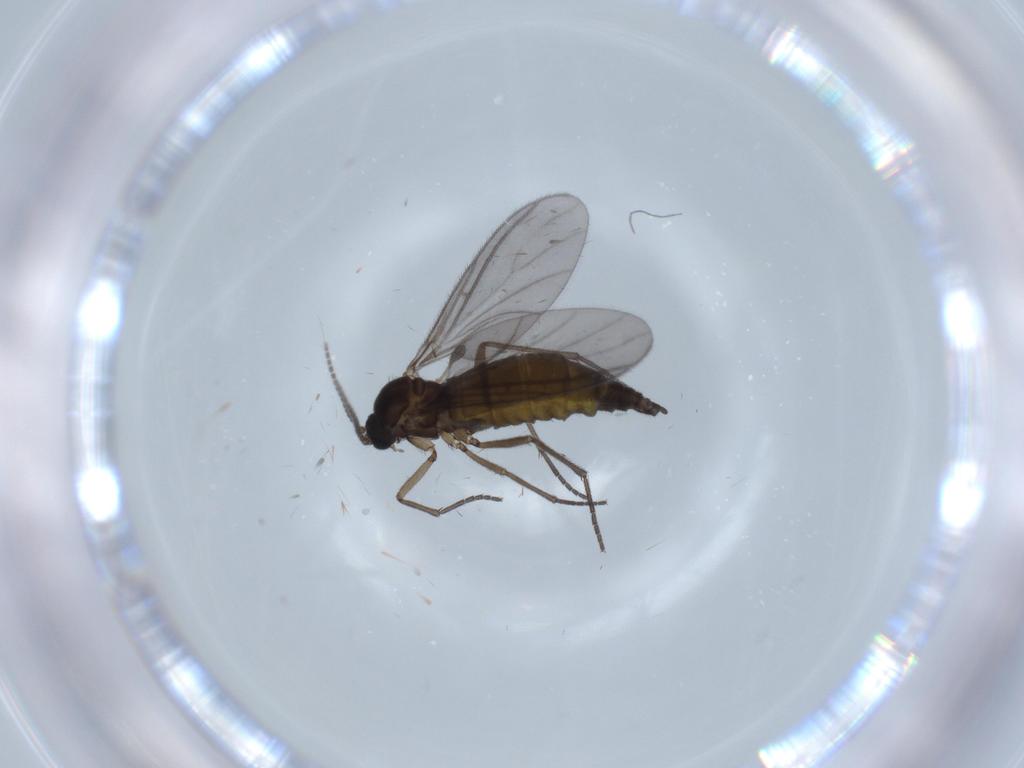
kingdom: Animalia
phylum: Arthropoda
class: Insecta
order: Diptera
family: Sciaridae
